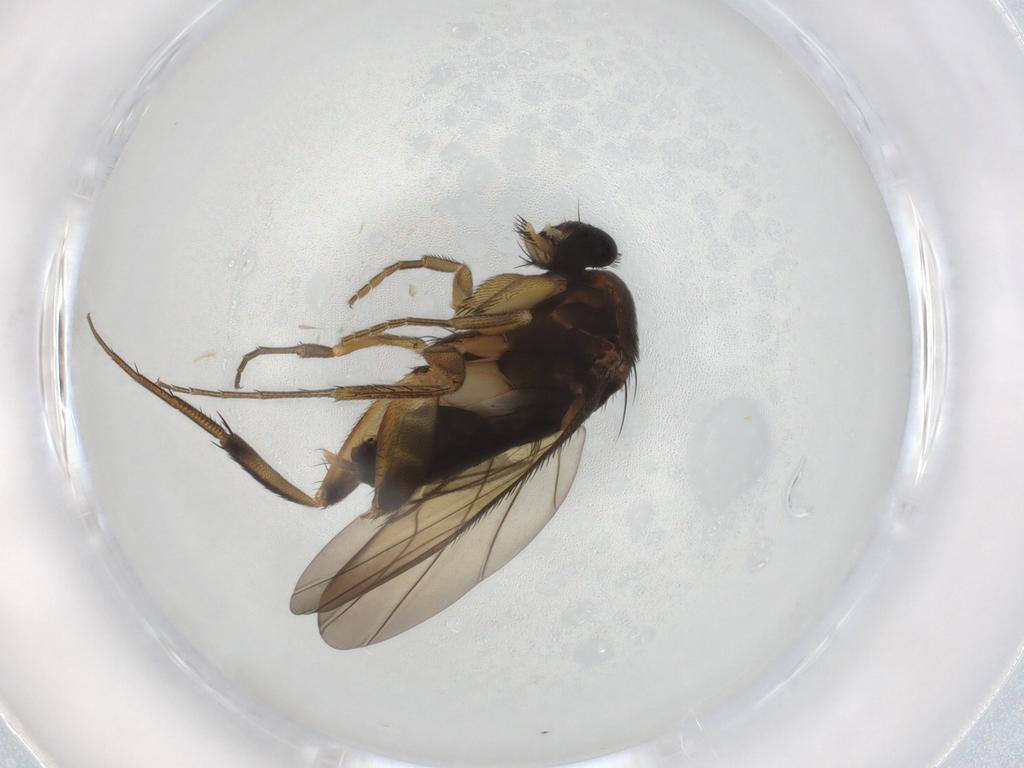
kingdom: Animalia
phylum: Arthropoda
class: Insecta
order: Diptera
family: Phoridae
